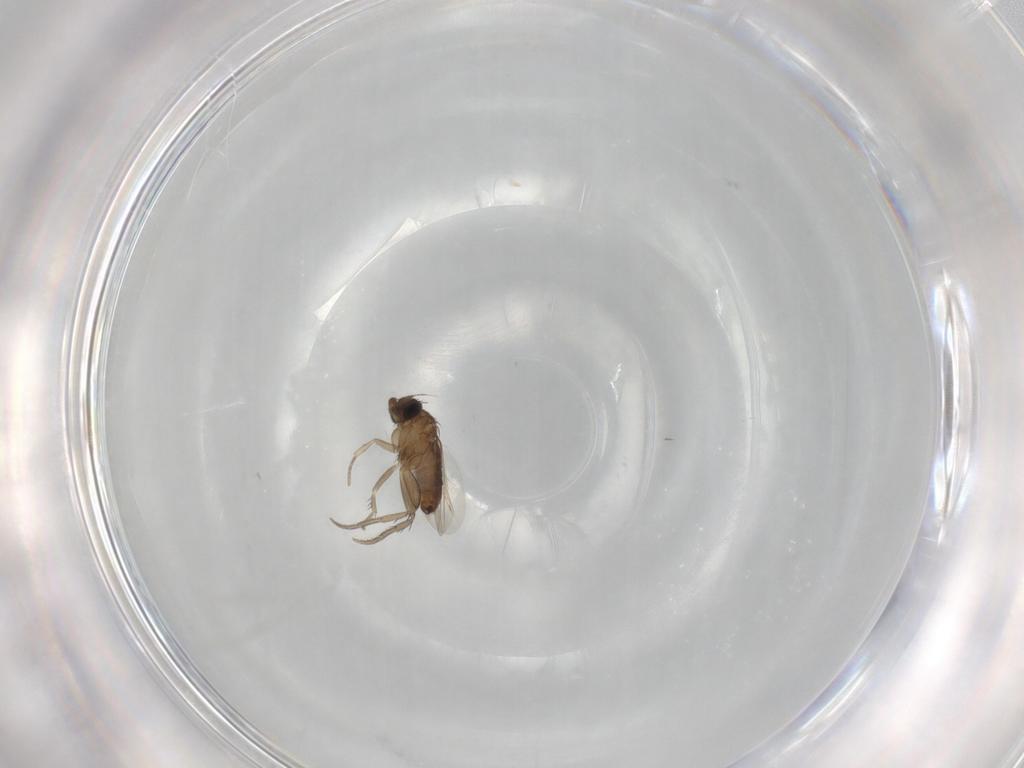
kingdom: Animalia
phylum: Arthropoda
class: Insecta
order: Diptera
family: Phoridae
